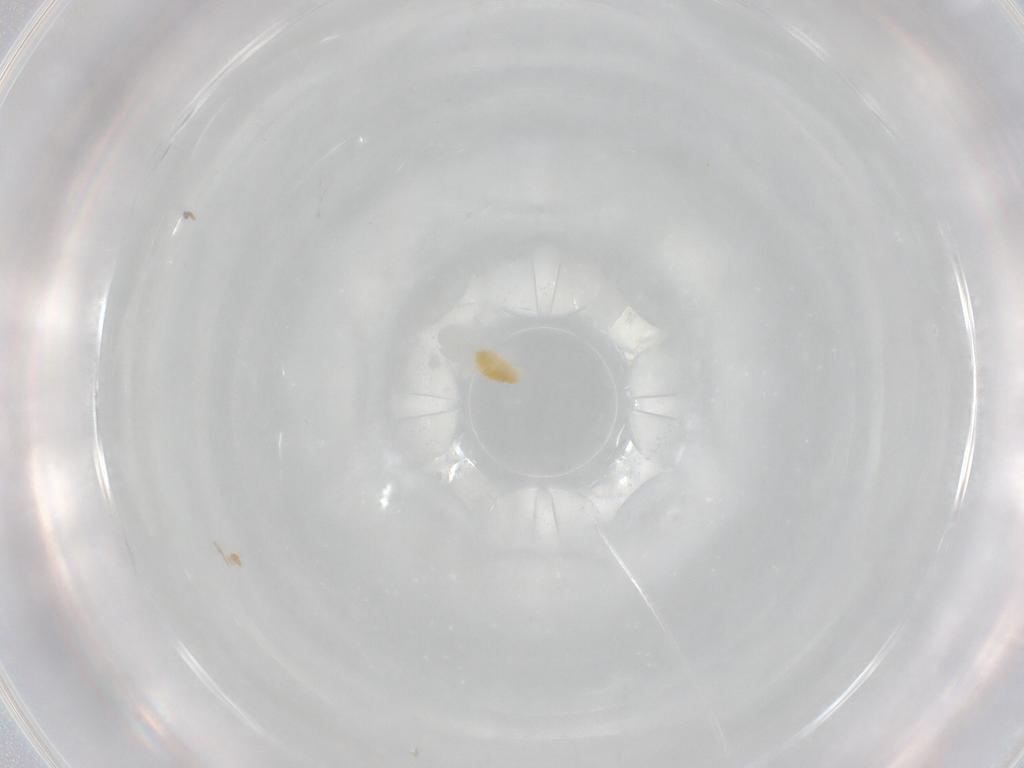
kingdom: Animalia
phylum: Arthropoda
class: Arachnida
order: Trombidiformes
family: Eupodidae
